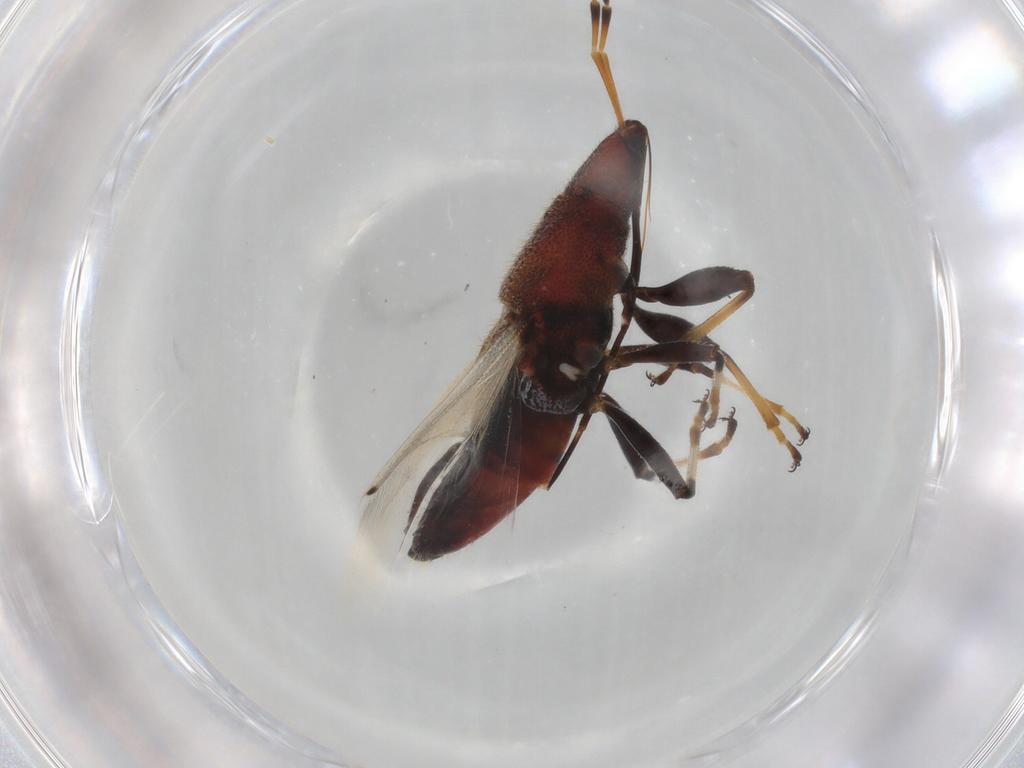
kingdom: Animalia
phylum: Arthropoda
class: Insecta
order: Hemiptera
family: Oxycarenidae
